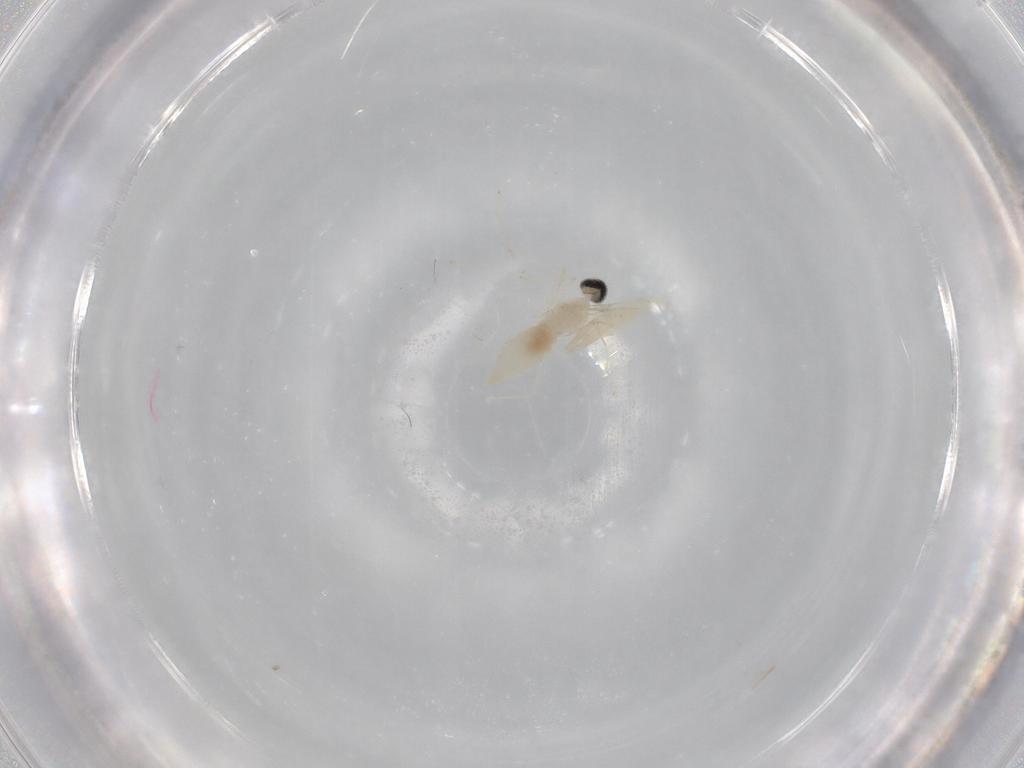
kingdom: Animalia
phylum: Arthropoda
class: Insecta
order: Diptera
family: Cecidomyiidae
